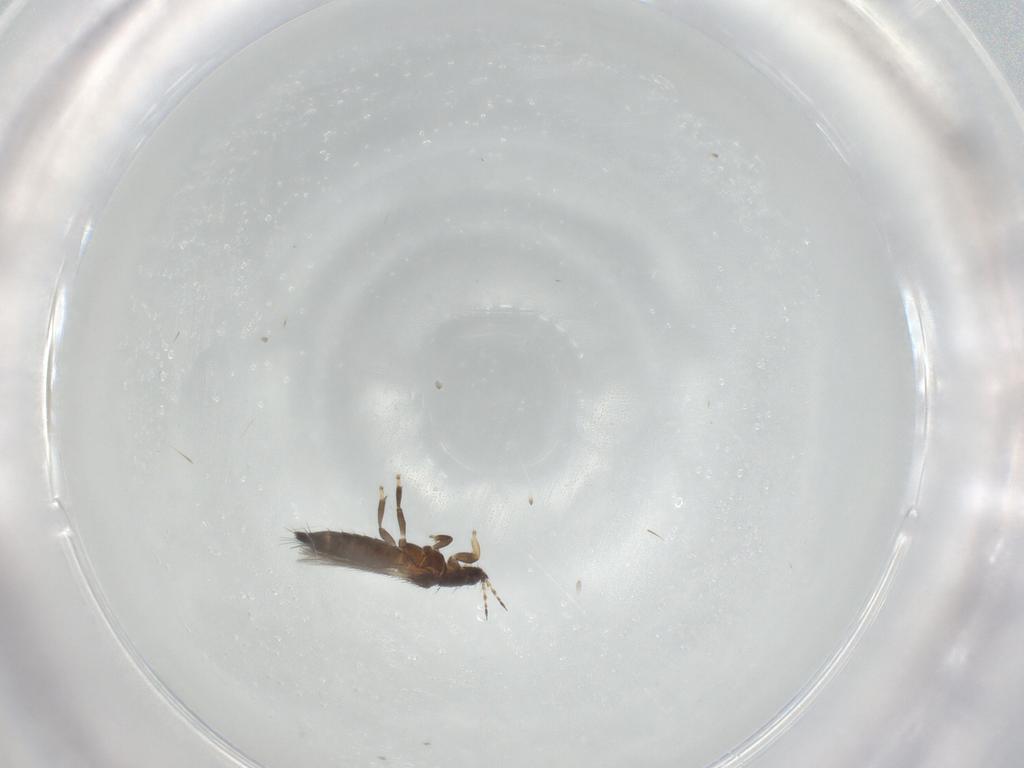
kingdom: Animalia
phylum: Arthropoda
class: Insecta
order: Thysanoptera
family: Thripidae
